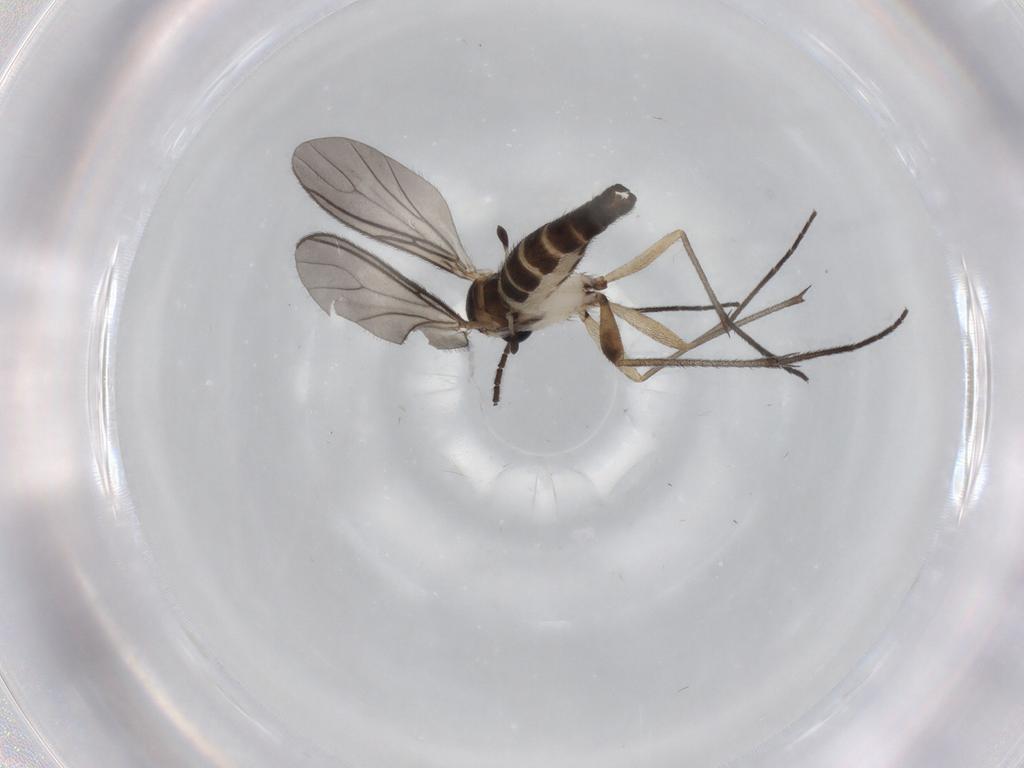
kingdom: Animalia
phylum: Arthropoda
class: Insecta
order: Diptera
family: Sciaridae
